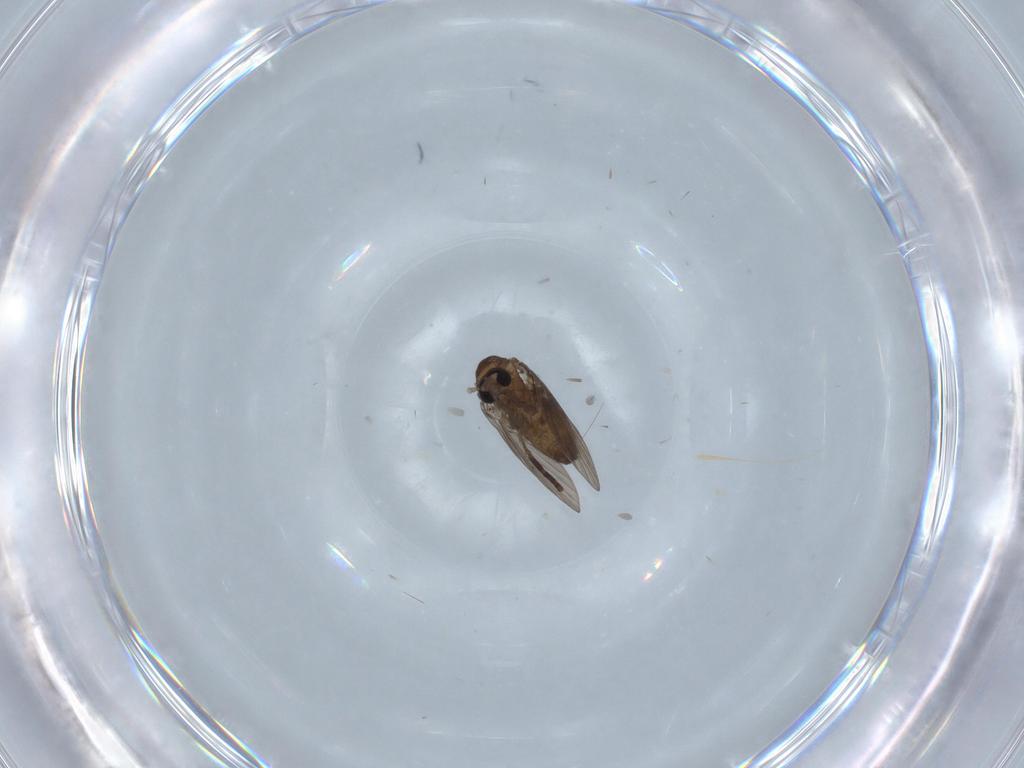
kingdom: Animalia
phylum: Arthropoda
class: Insecta
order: Diptera
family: Psychodidae
